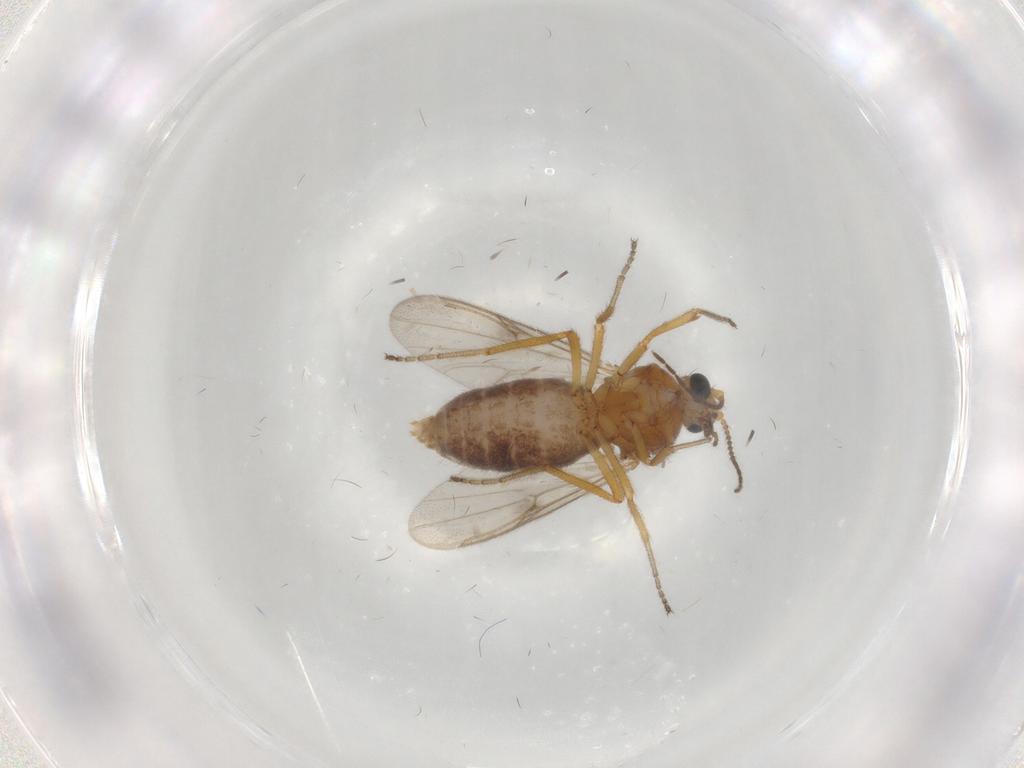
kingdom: Animalia
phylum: Arthropoda
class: Insecta
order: Diptera
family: Ceratopogonidae
